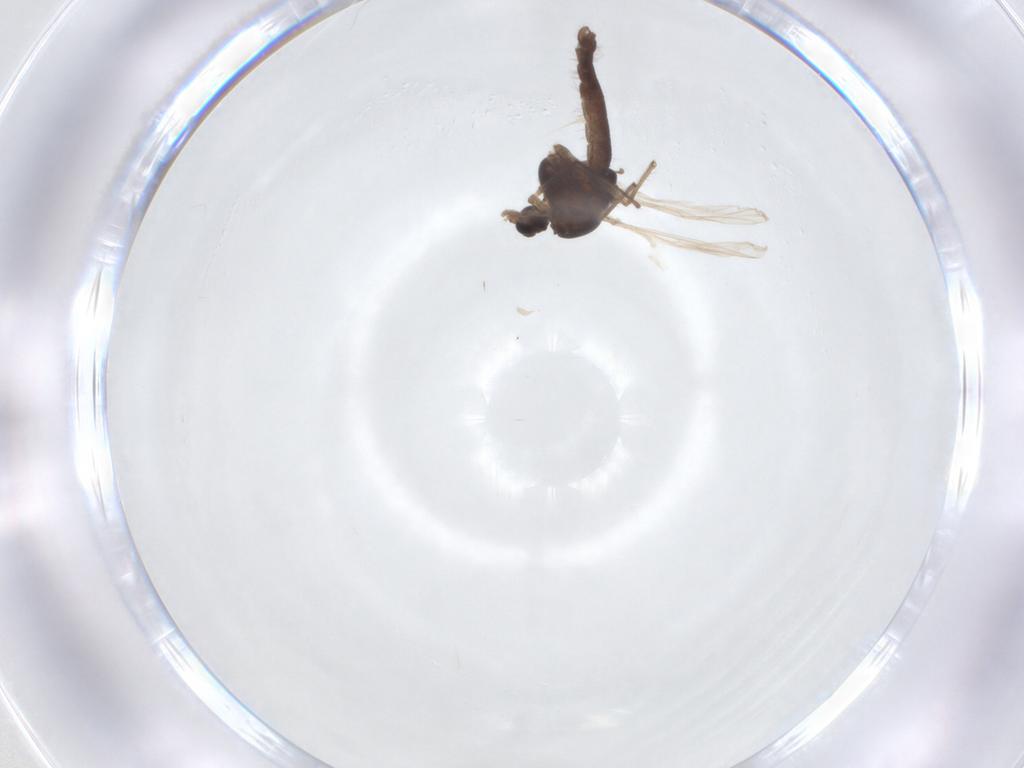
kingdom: Animalia
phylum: Arthropoda
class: Insecta
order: Diptera
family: Chironomidae
